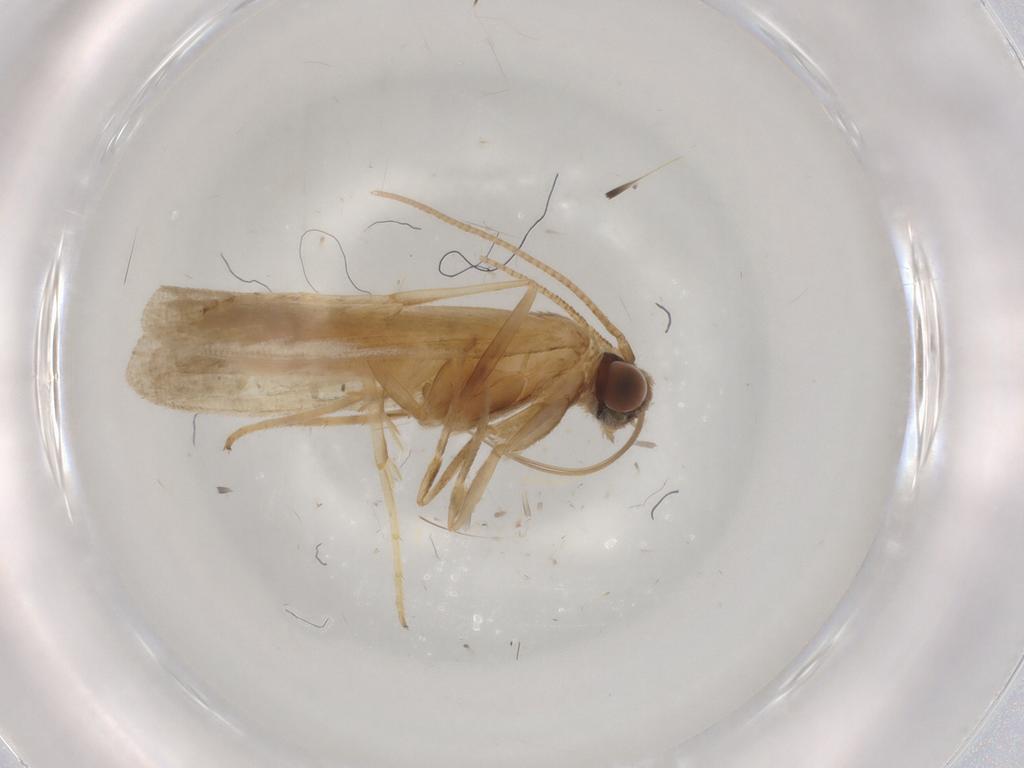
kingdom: Animalia
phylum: Arthropoda
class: Insecta
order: Lepidoptera
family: Noctuidae
